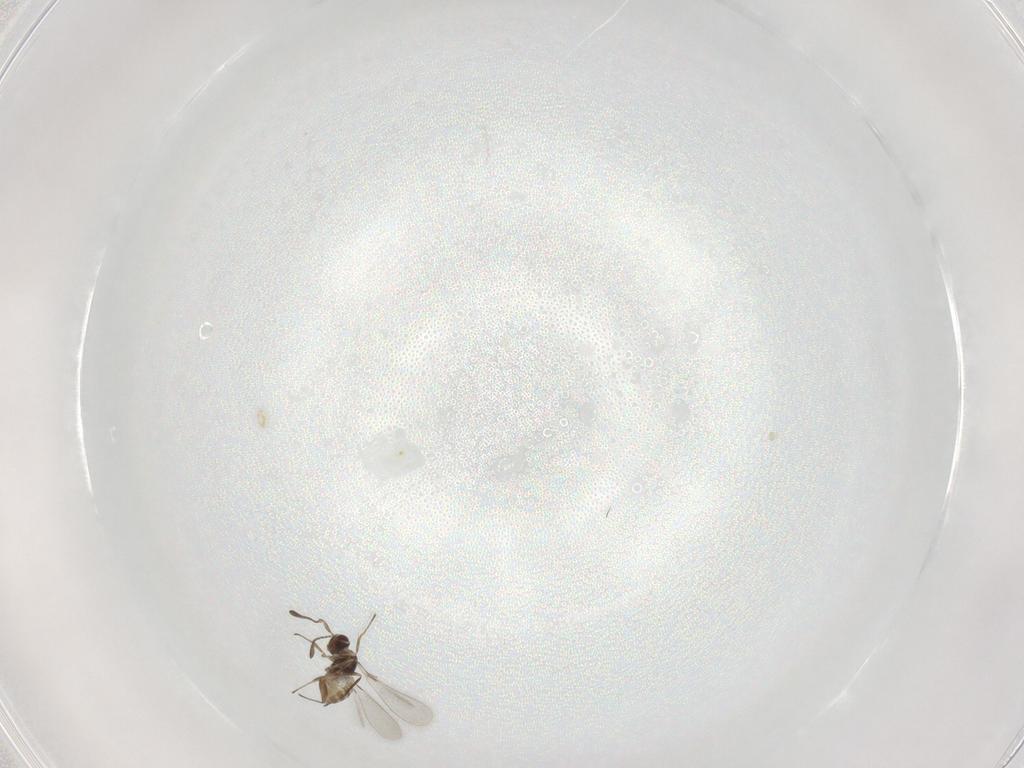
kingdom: Animalia
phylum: Arthropoda
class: Insecta
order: Hymenoptera
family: Mymaridae
